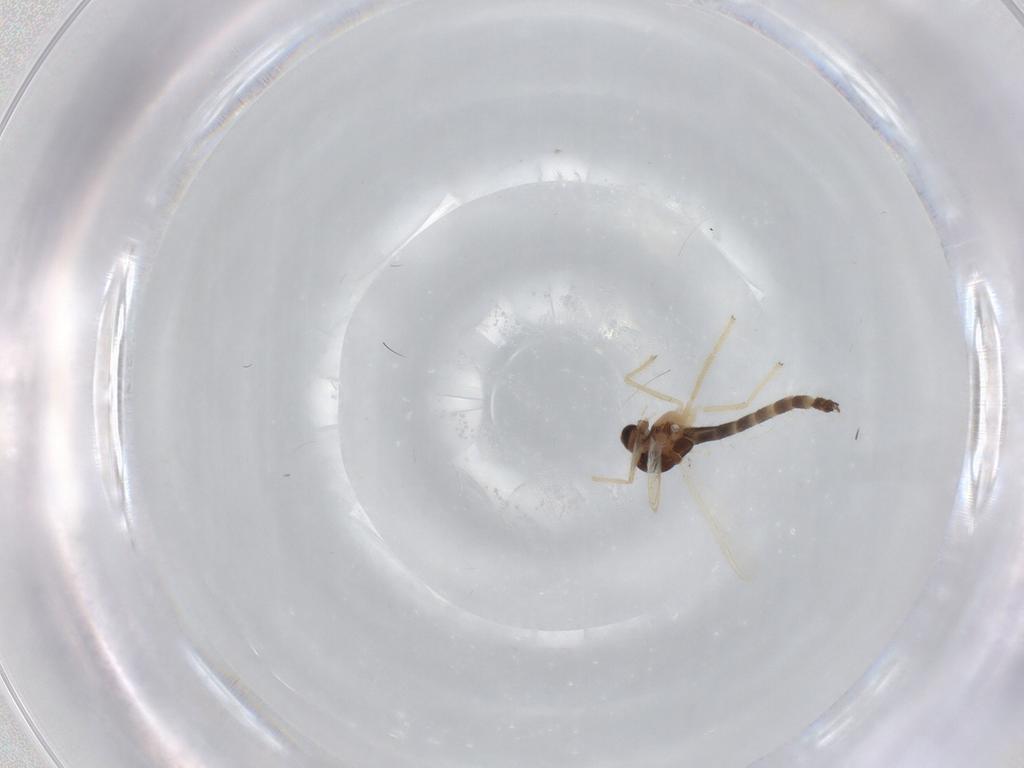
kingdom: Animalia
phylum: Arthropoda
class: Insecta
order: Diptera
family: Chironomidae
